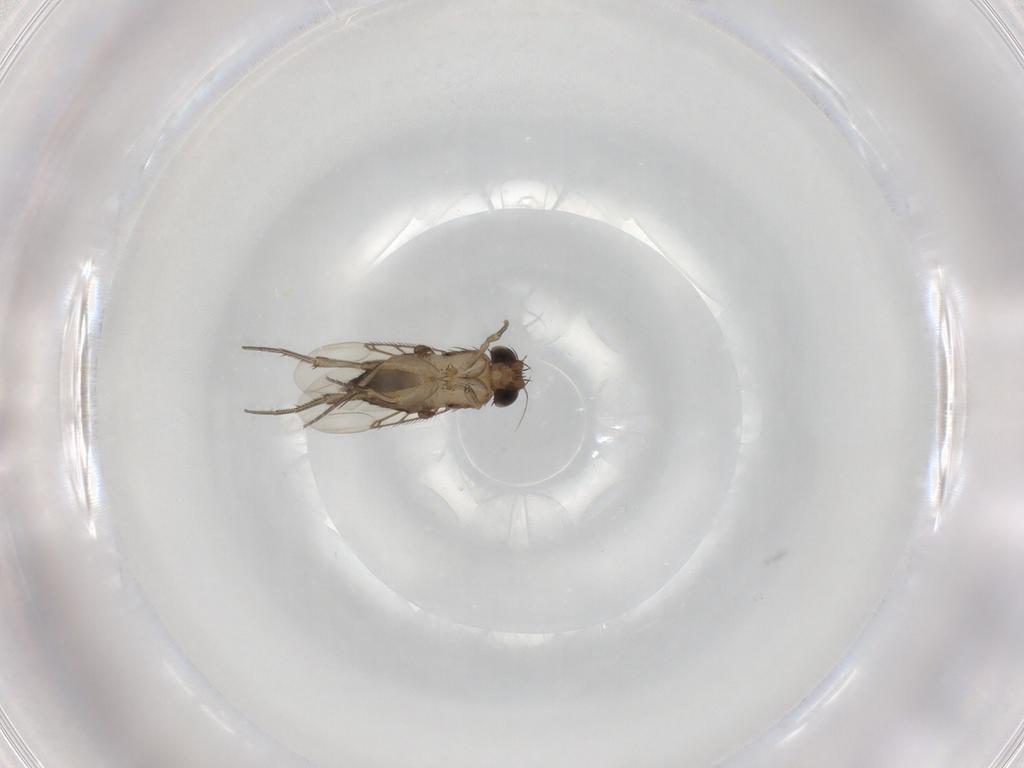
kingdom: Animalia
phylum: Arthropoda
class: Insecta
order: Diptera
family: Phoridae
